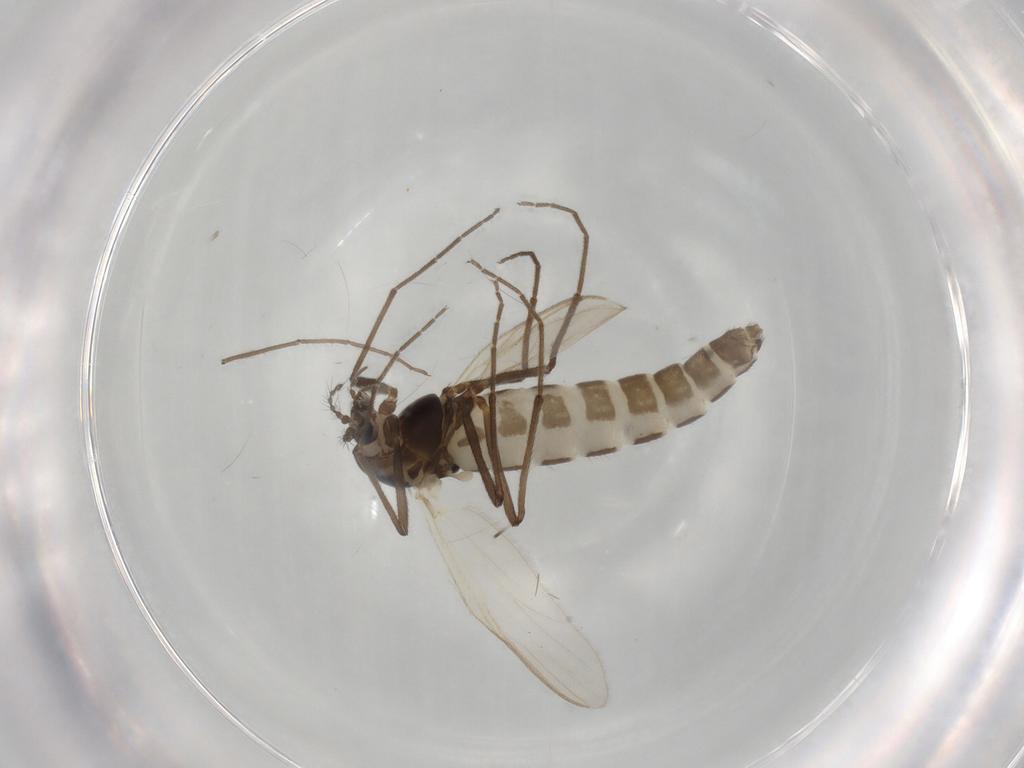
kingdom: Animalia
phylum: Arthropoda
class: Insecta
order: Diptera
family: Chironomidae
